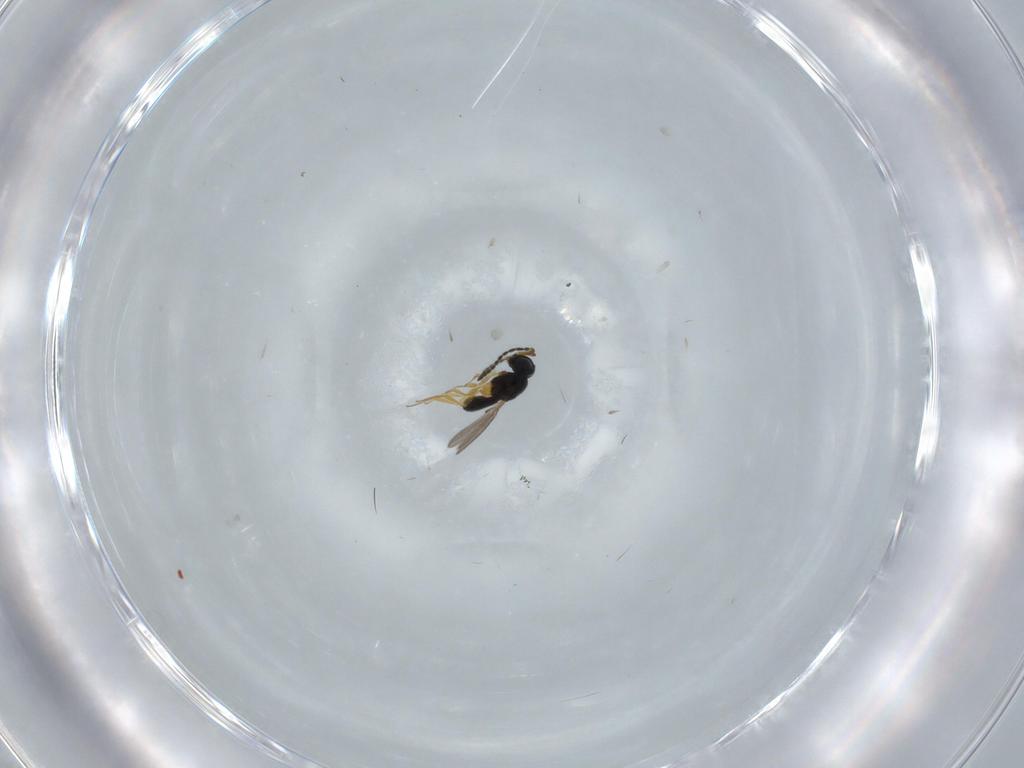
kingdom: Animalia
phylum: Arthropoda
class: Insecta
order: Hymenoptera
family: Scelionidae
